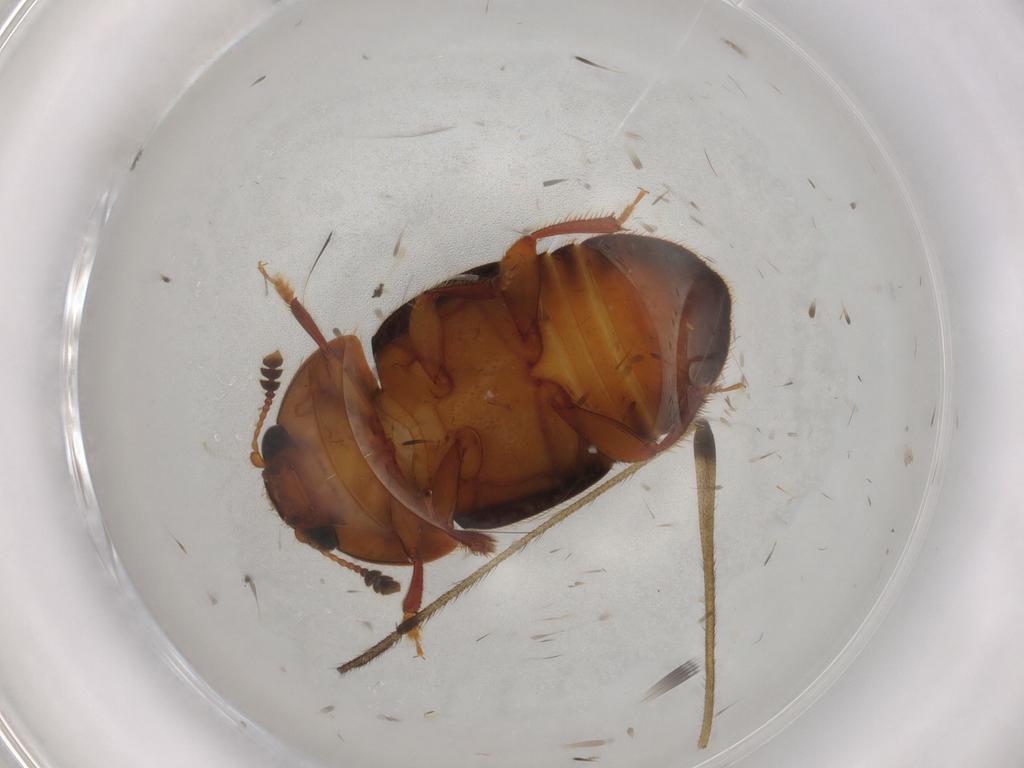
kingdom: Animalia
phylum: Arthropoda
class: Insecta
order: Coleoptera
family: Nitidulidae
